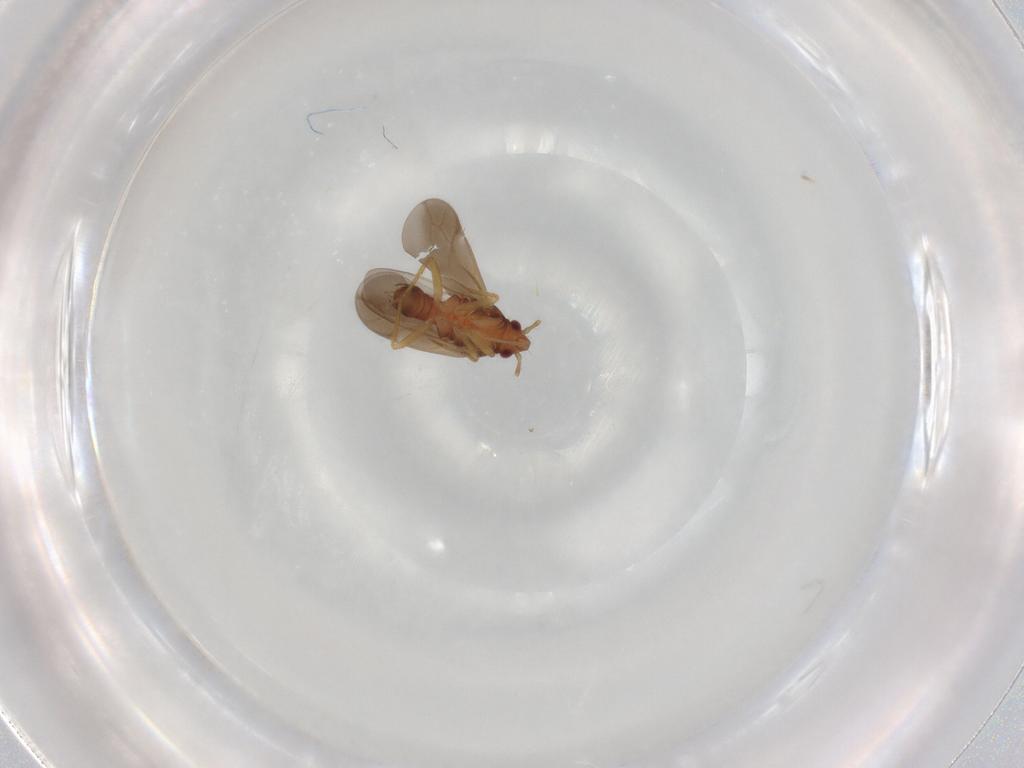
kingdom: Animalia
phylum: Arthropoda
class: Insecta
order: Hemiptera
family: Ceratocombidae
